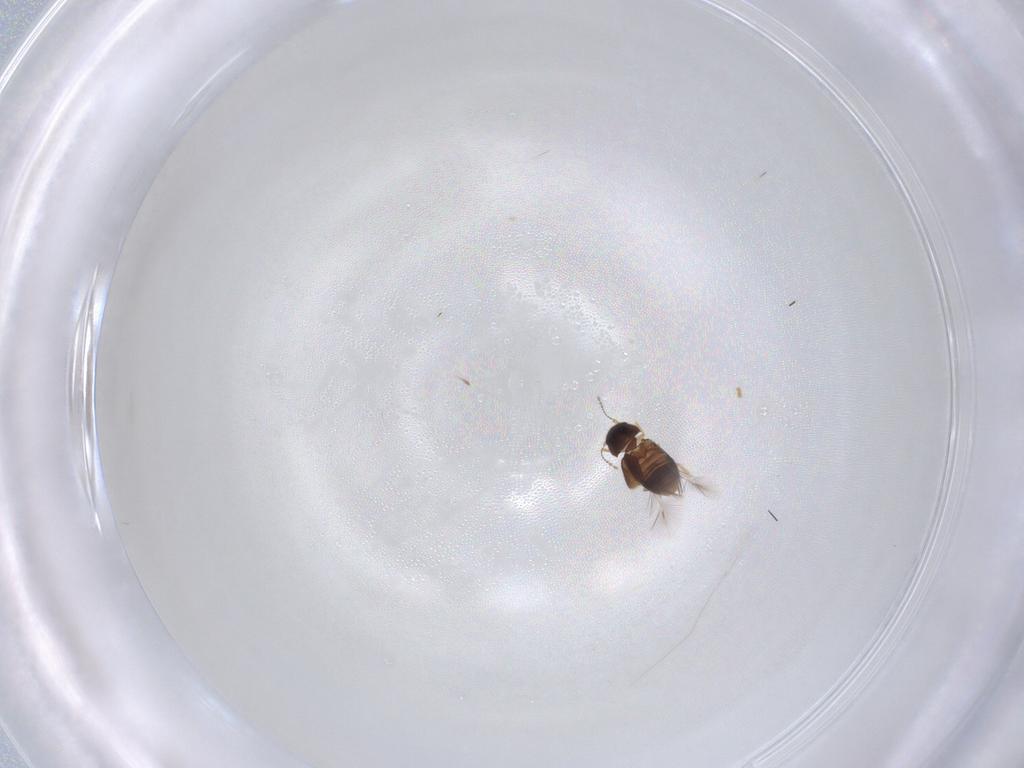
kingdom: Animalia
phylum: Arthropoda
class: Insecta
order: Coleoptera
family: Ptiliidae
